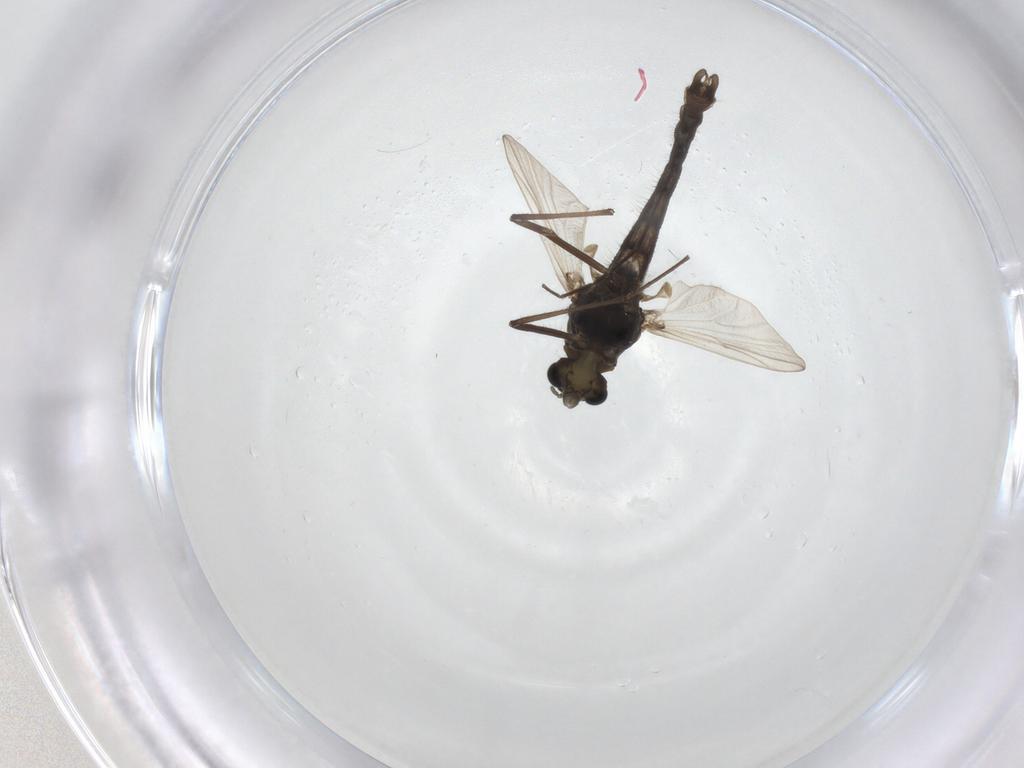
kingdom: Animalia
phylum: Arthropoda
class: Insecta
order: Diptera
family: Chironomidae
